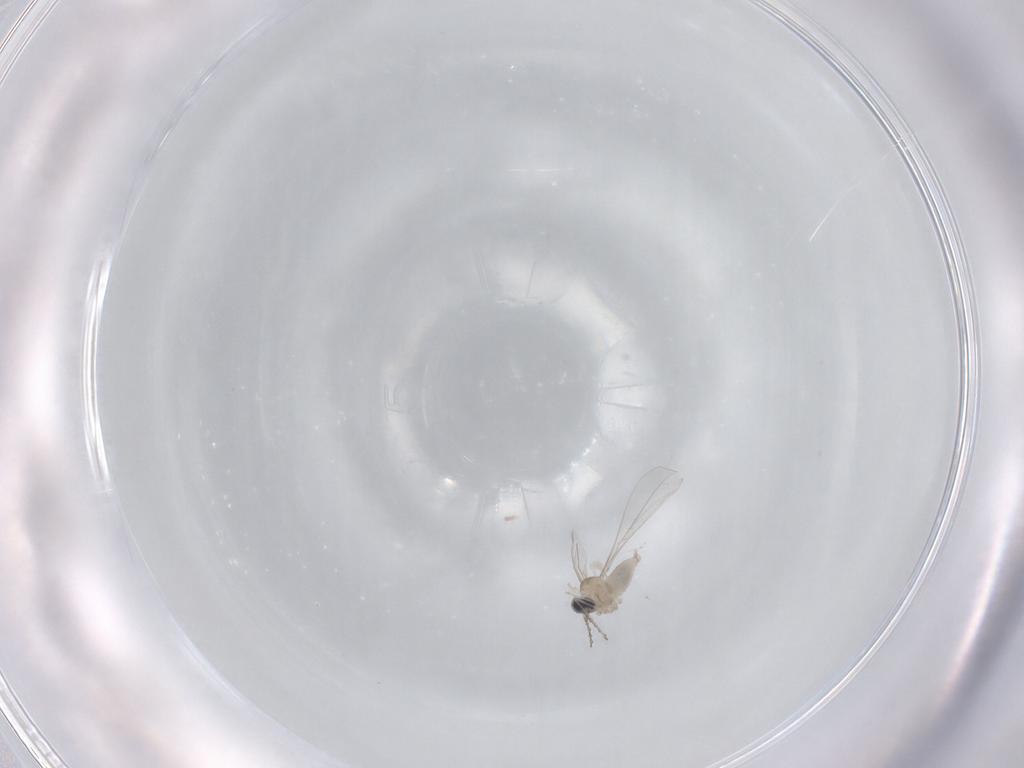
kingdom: Animalia
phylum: Arthropoda
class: Insecta
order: Diptera
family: Cecidomyiidae
